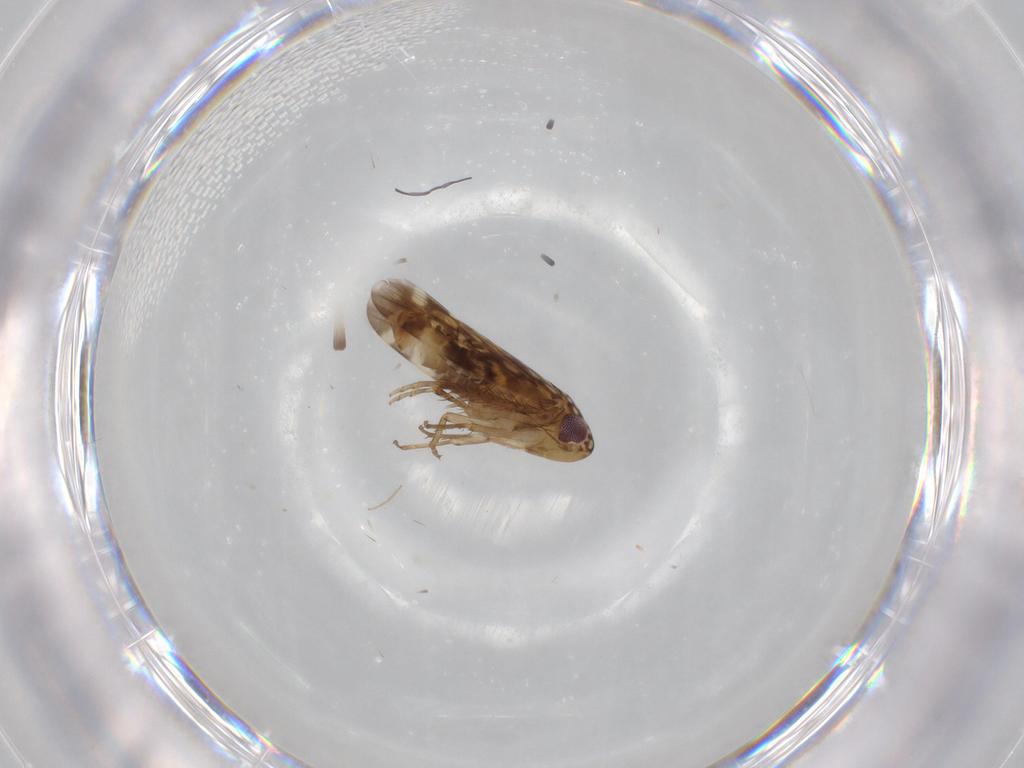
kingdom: Animalia
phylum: Arthropoda
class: Insecta
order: Hemiptera
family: Cicadellidae
